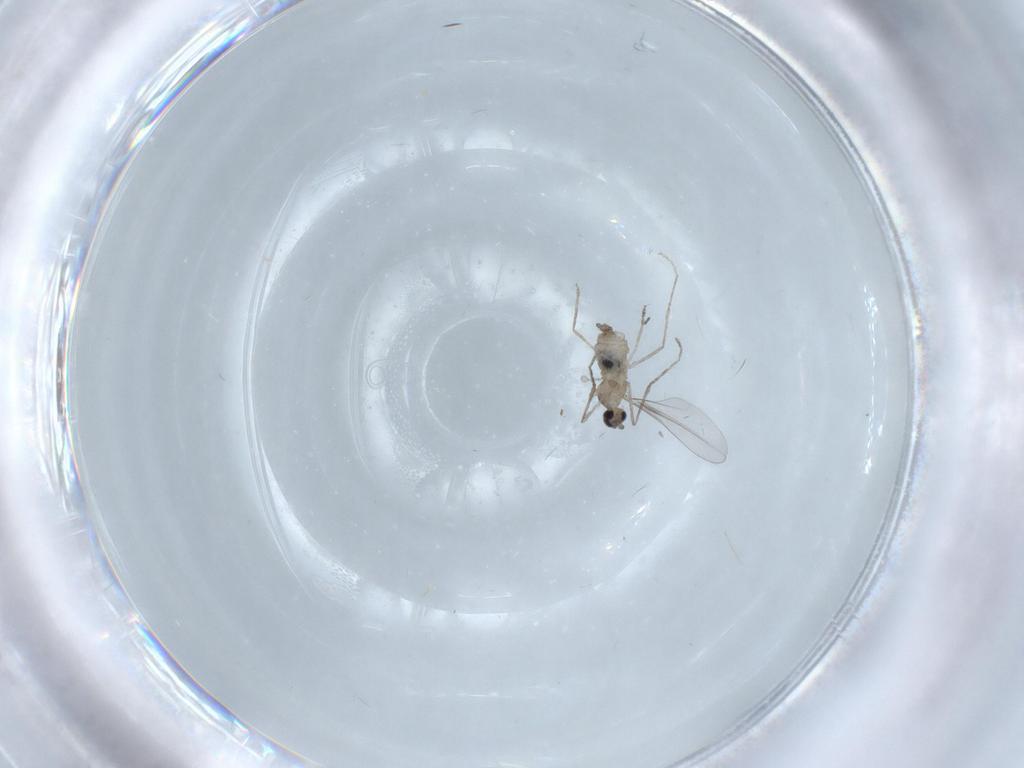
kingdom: Animalia
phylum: Arthropoda
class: Insecta
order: Diptera
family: Cecidomyiidae
